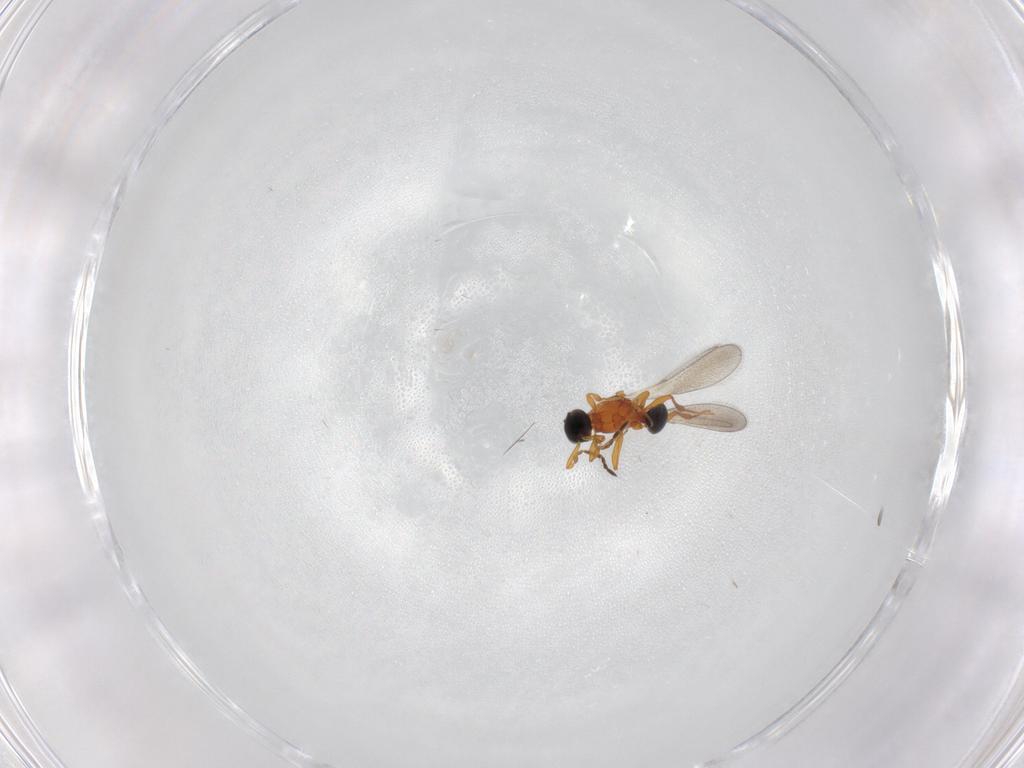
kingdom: Animalia
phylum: Arthropoda
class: Insecta
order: Hymenoptera
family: Platygastridae
